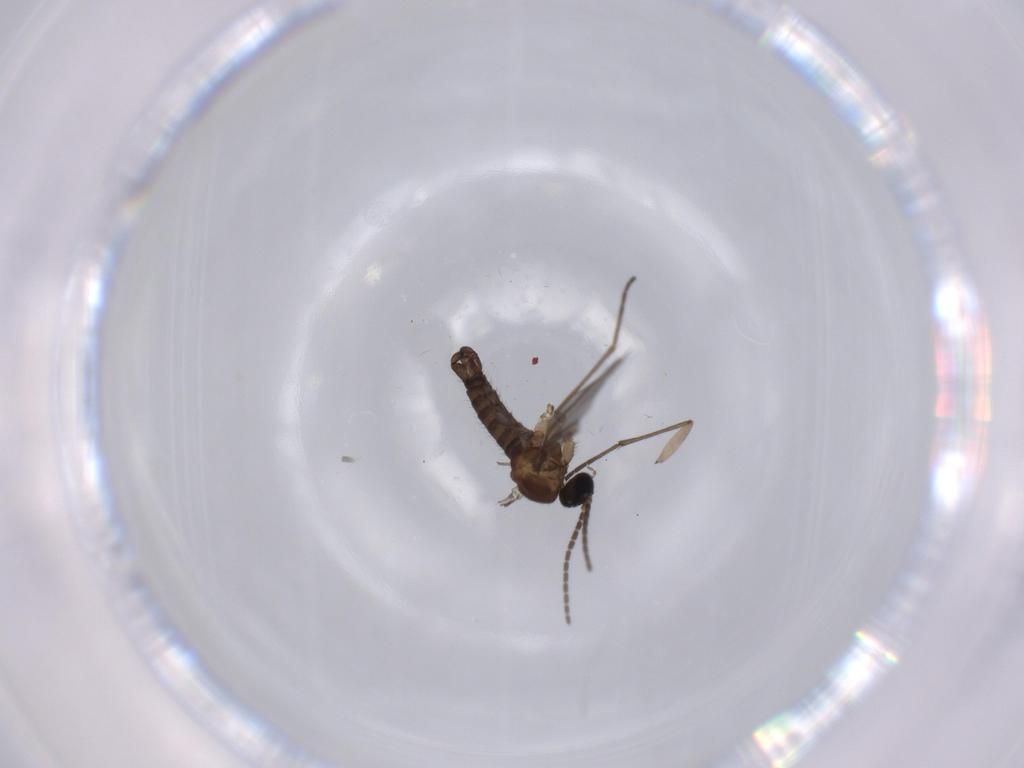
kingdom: Animalia
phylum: Arthropoda
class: Insecta
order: Diptera
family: Sciaridae
